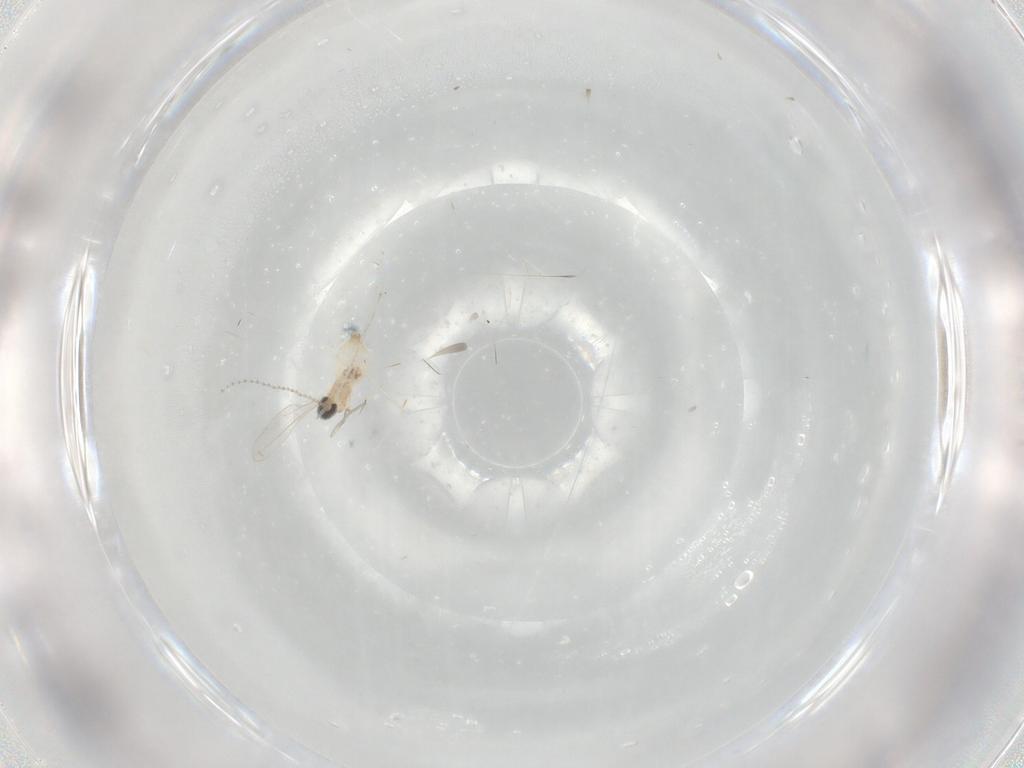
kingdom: Animalia
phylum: Arthropoda
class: Insecta
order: Diptera
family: Cecidomyiidae
